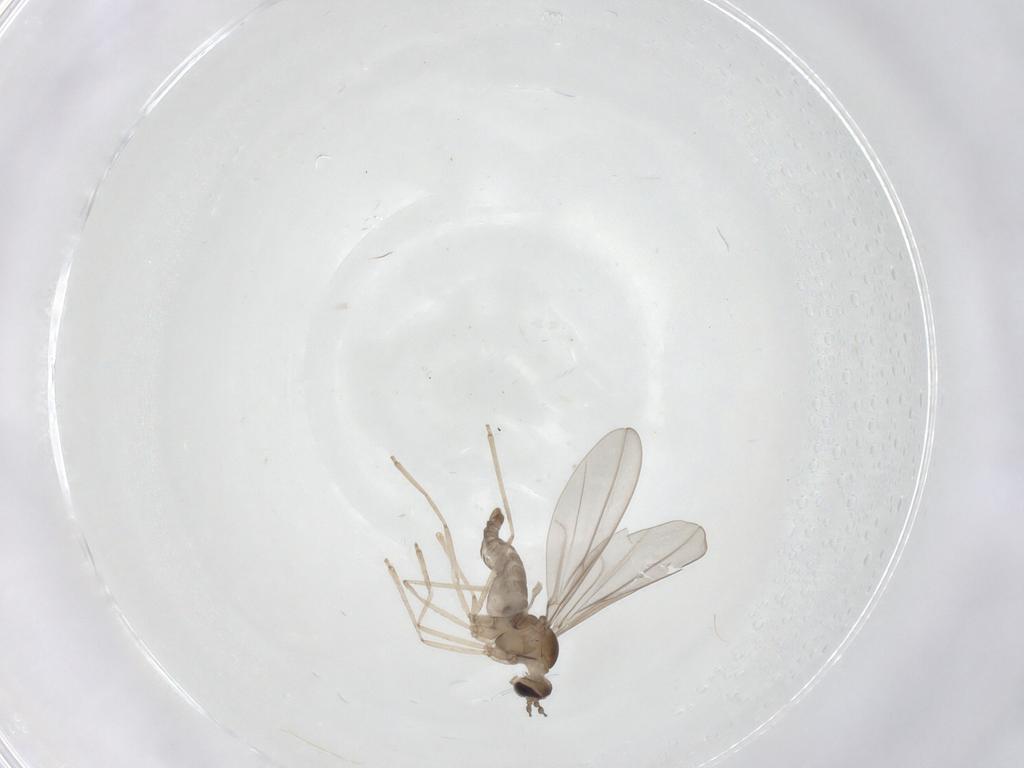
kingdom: Animalia
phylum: Arthropoda
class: Insecta
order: Diptera
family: Cecidomyiidae
